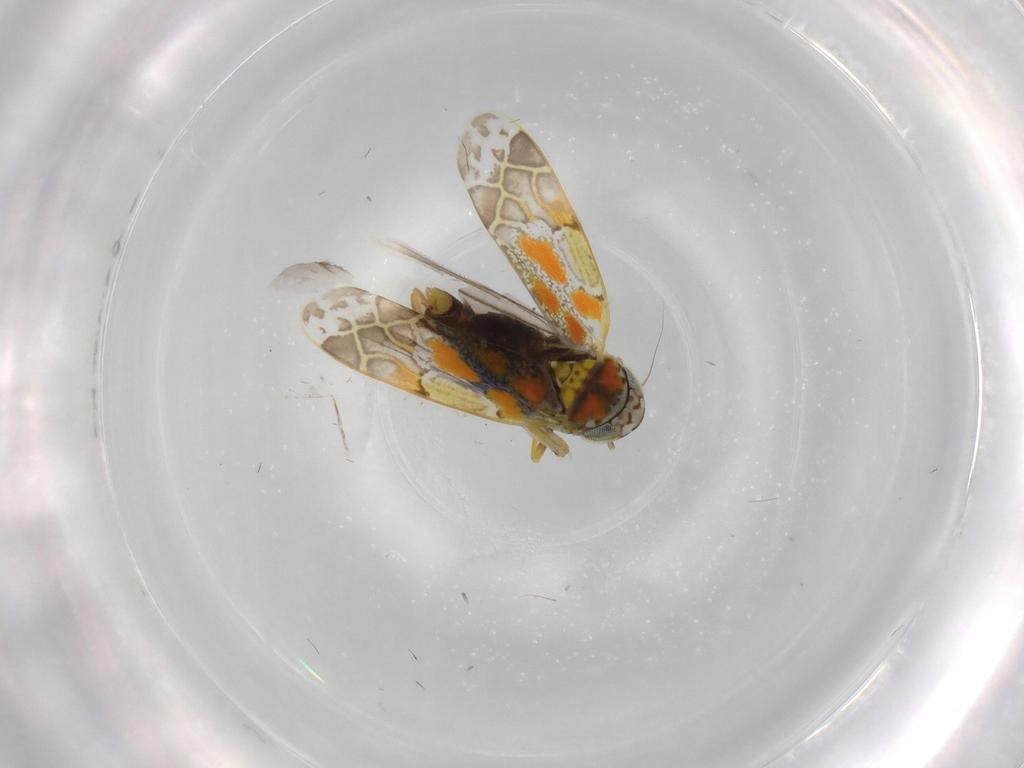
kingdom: Animalia
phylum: Arthropoda
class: Insecta
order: Hemiptera
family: Cicadellidae
